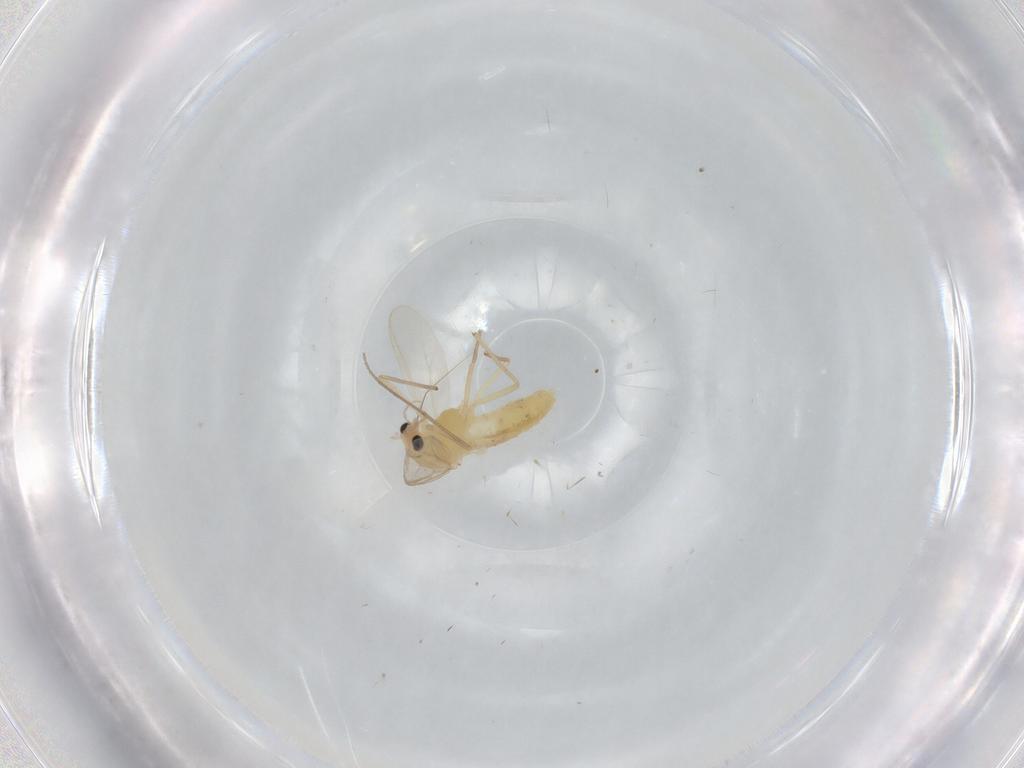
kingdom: Animalia
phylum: Arthropoda
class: Insecta
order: Diptera
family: Chironomidae
